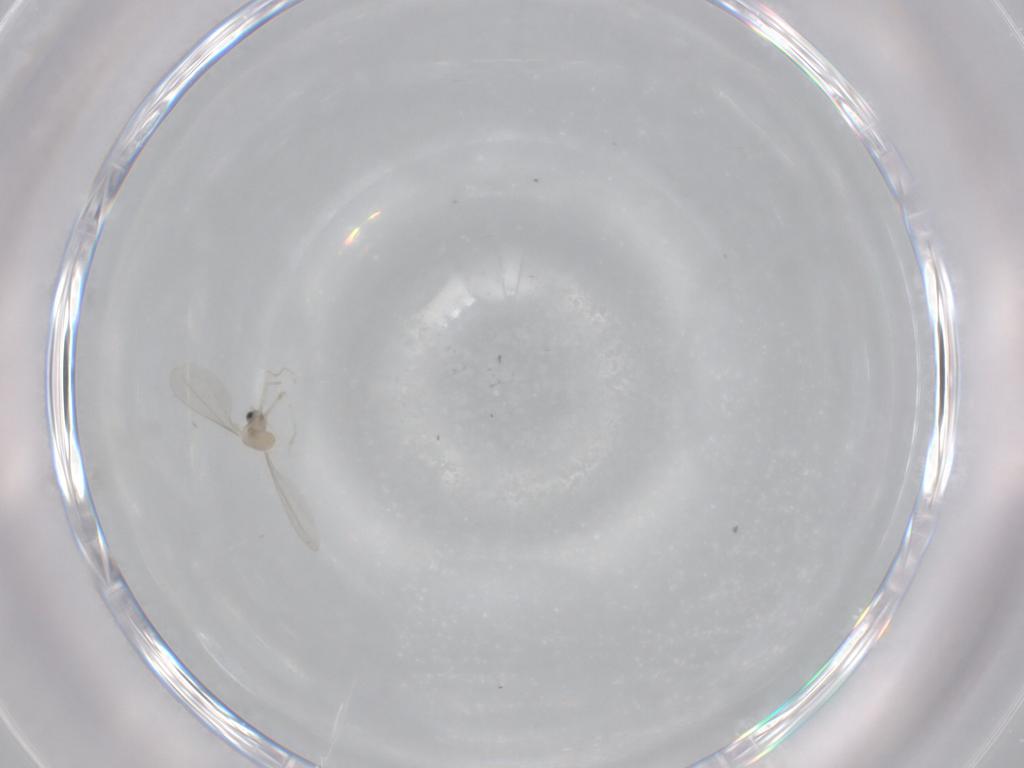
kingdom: Animalia
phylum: Arthropoda
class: Insecta
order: Diptera
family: Cecidomyiidae
